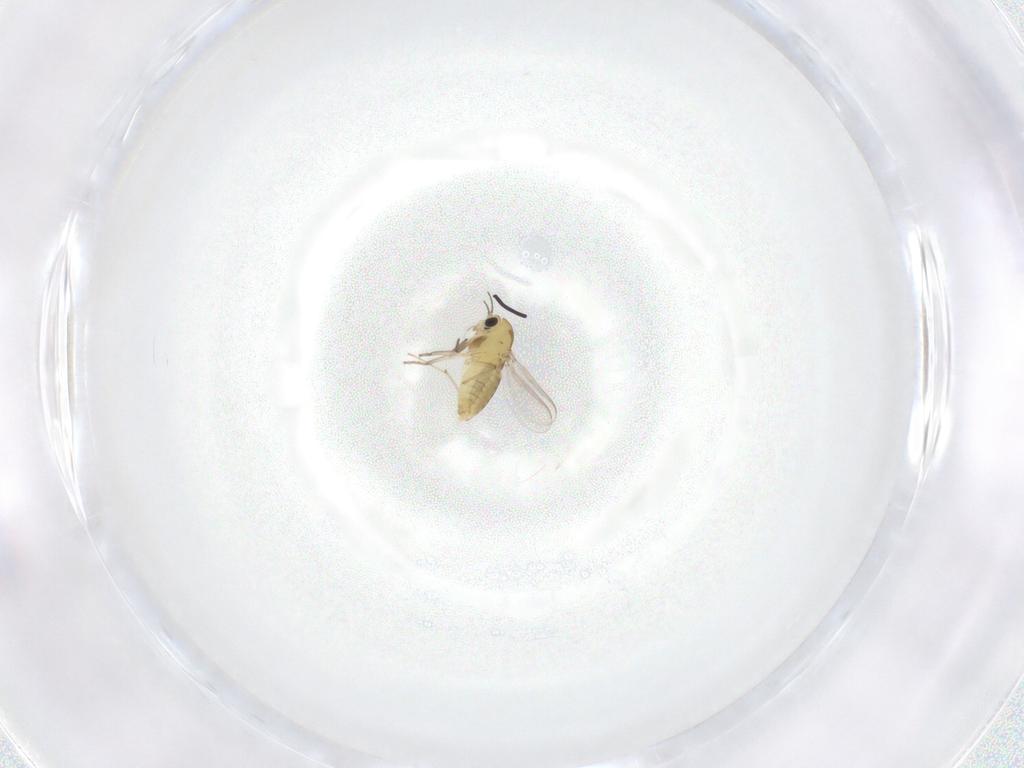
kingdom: Animalia
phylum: Arthropoda
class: Insecta
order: Diptera
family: Chironomidae
